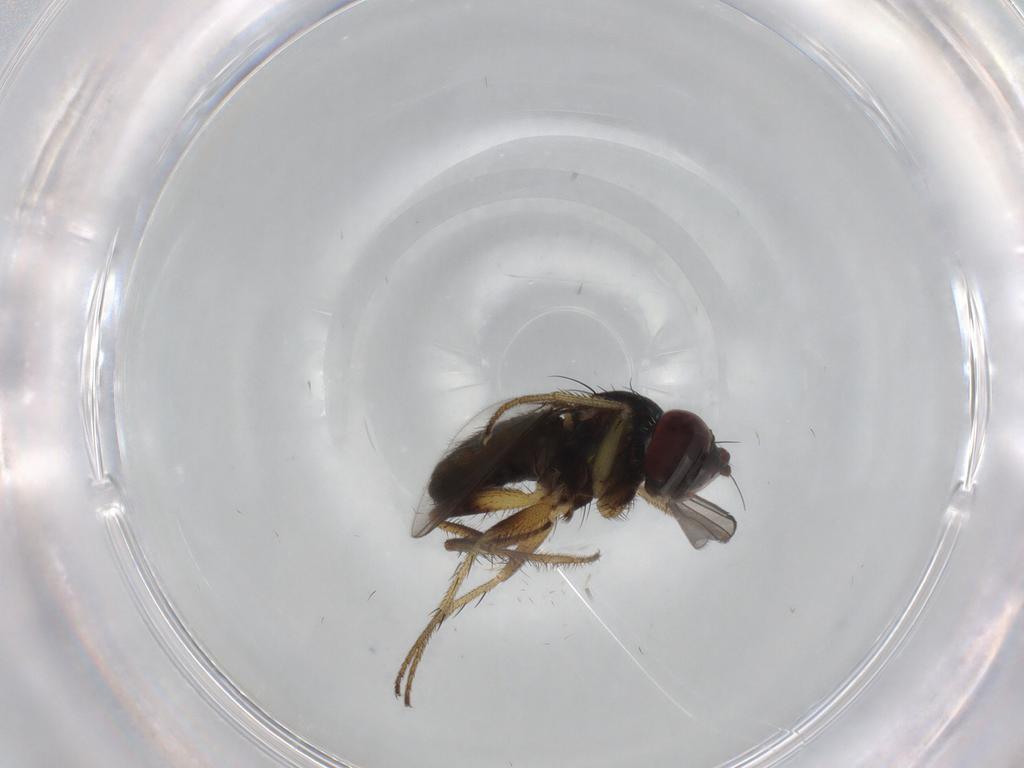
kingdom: Animalia
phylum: Arthropoda
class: Insecta
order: Diptera
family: Dolichopodidae
